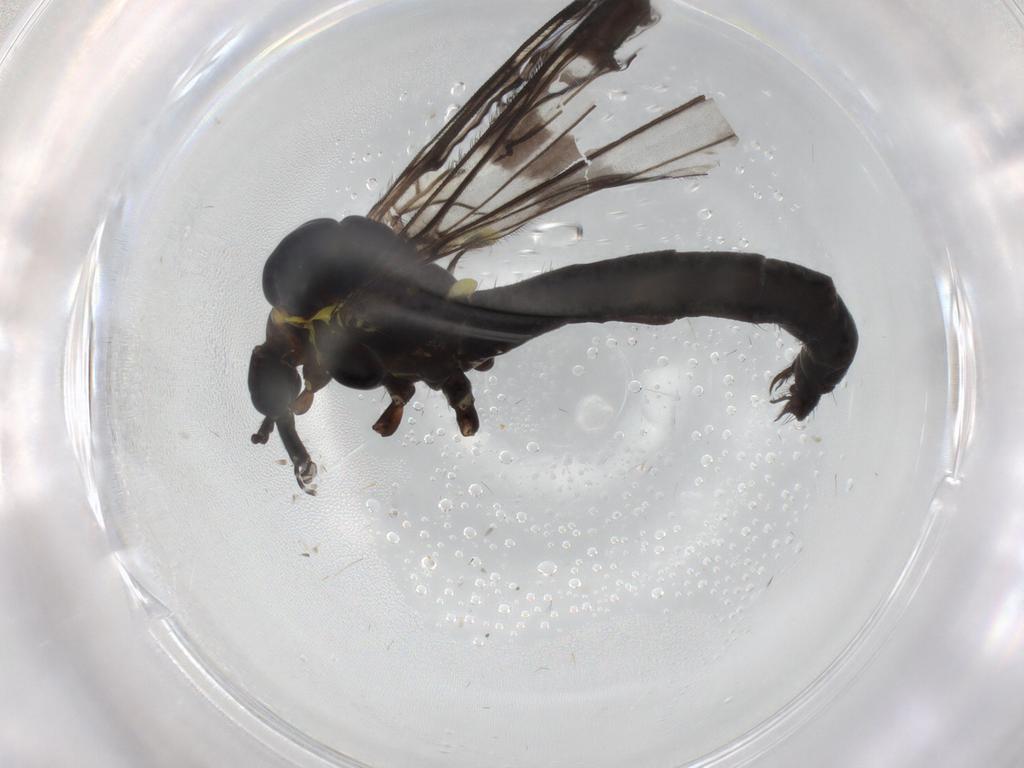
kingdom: Animalia
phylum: Arthropoda
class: Insecta
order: Diptera
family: Limoniidae
